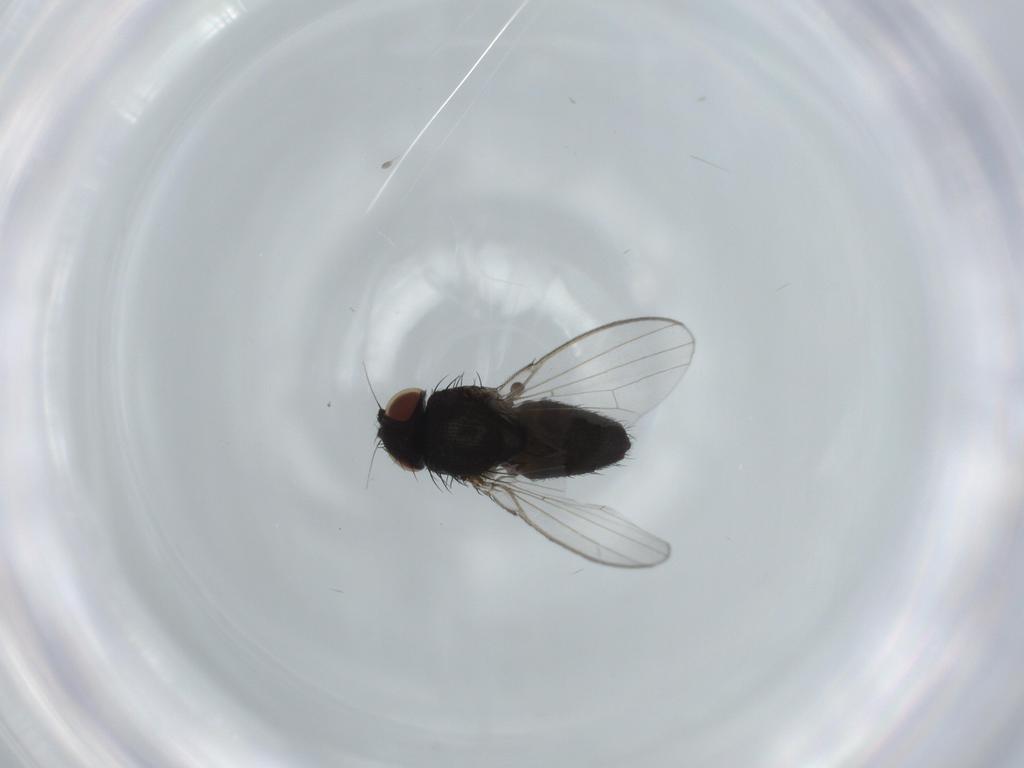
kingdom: Animalia
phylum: Arthropoda
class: Insecta
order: Diptera
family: Milichiidae
